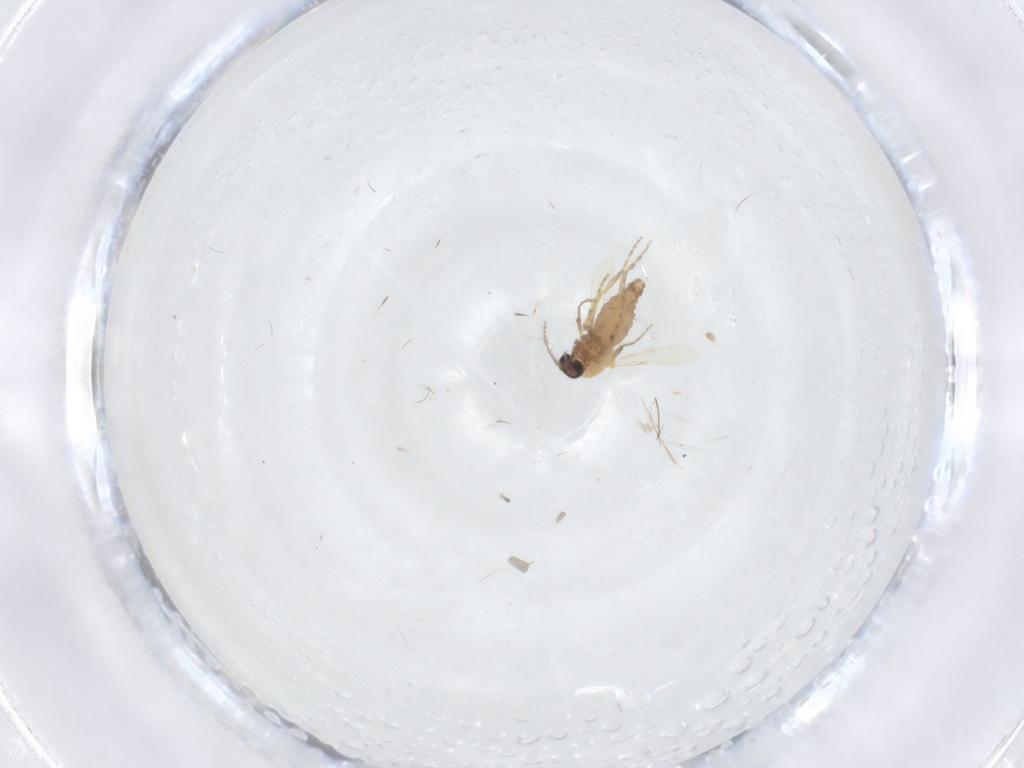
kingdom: Animalia
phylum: Arthropoda
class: Insecta
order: Diptera
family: Ceratopogonidae
